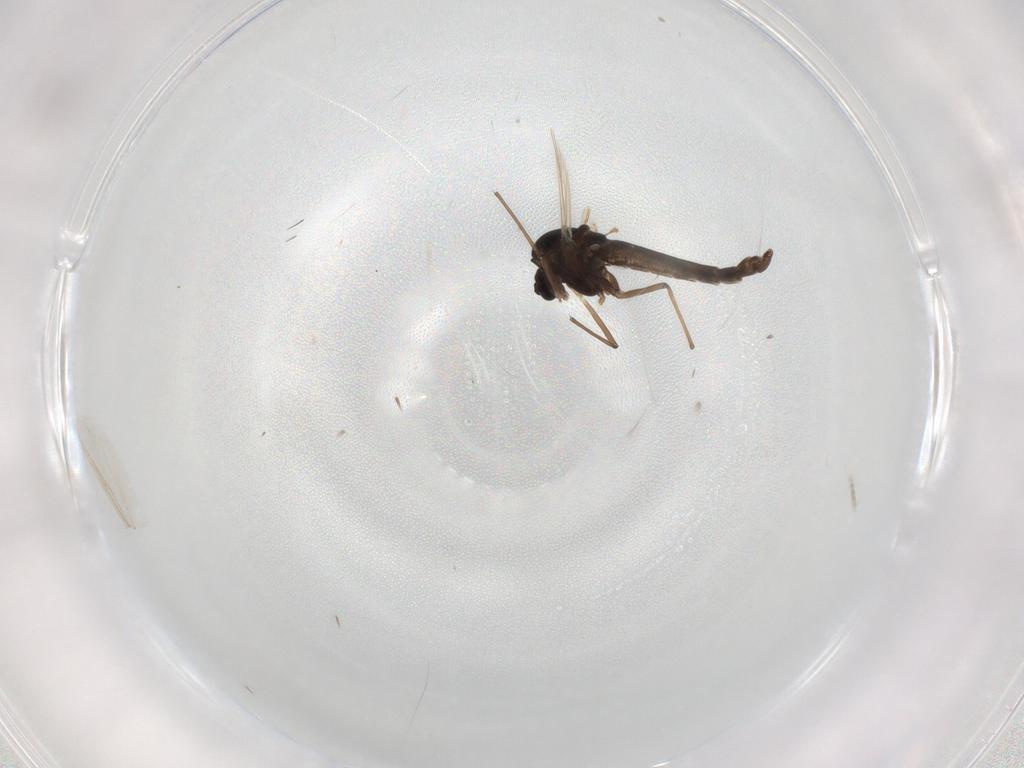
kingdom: Animalia
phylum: Arthropoda
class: Insecta
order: Diptera
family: Chironomidae
